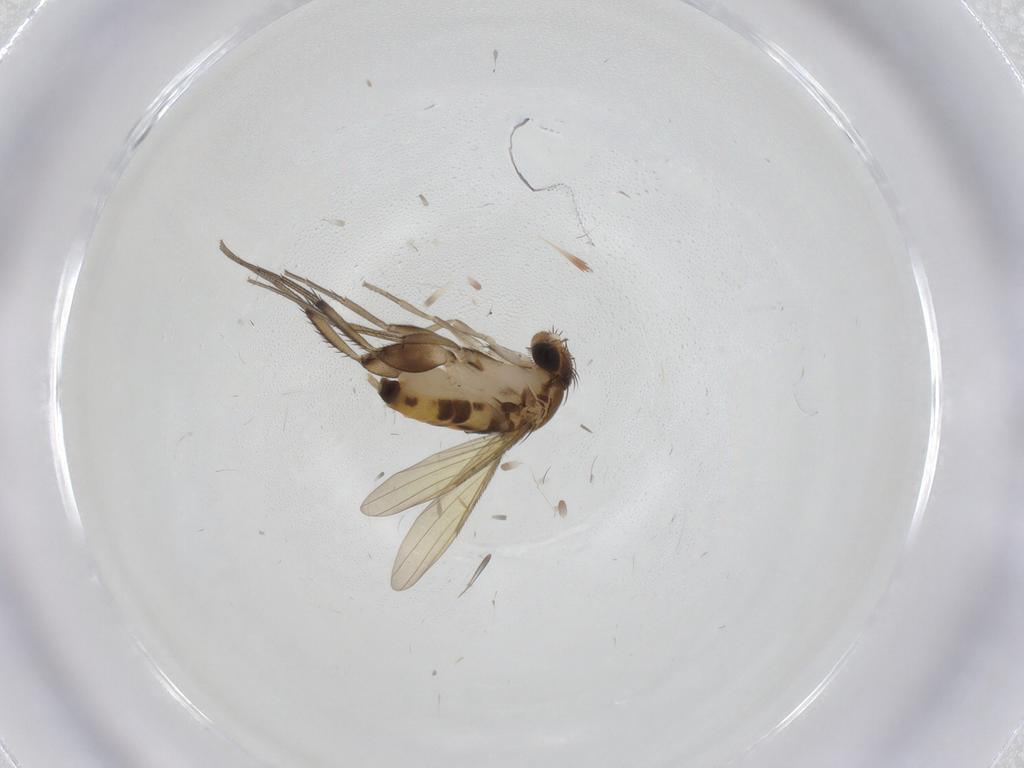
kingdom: Animalia
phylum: Arthropoda
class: Insecta
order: Diptera
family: Phoridae
